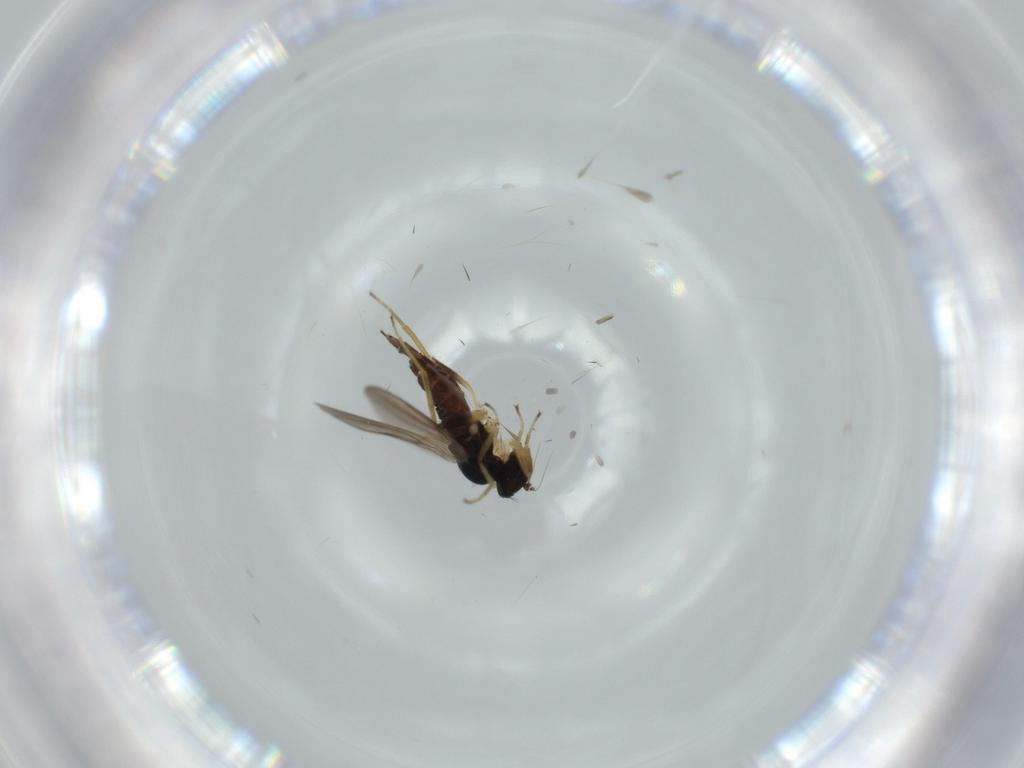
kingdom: Animalia
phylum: Arthropoda
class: Insecta
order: Diptera
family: Hybotidae
